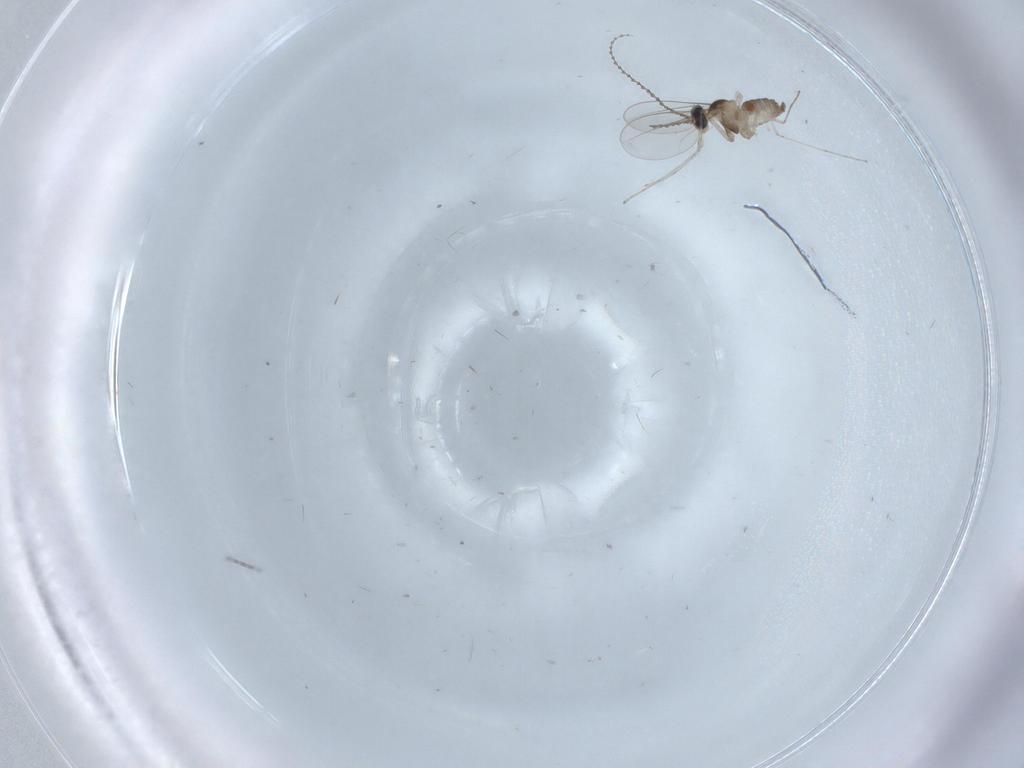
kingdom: Animalia
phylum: Arthropoda
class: Insecta
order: Diptera
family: Cecidomyiidae
